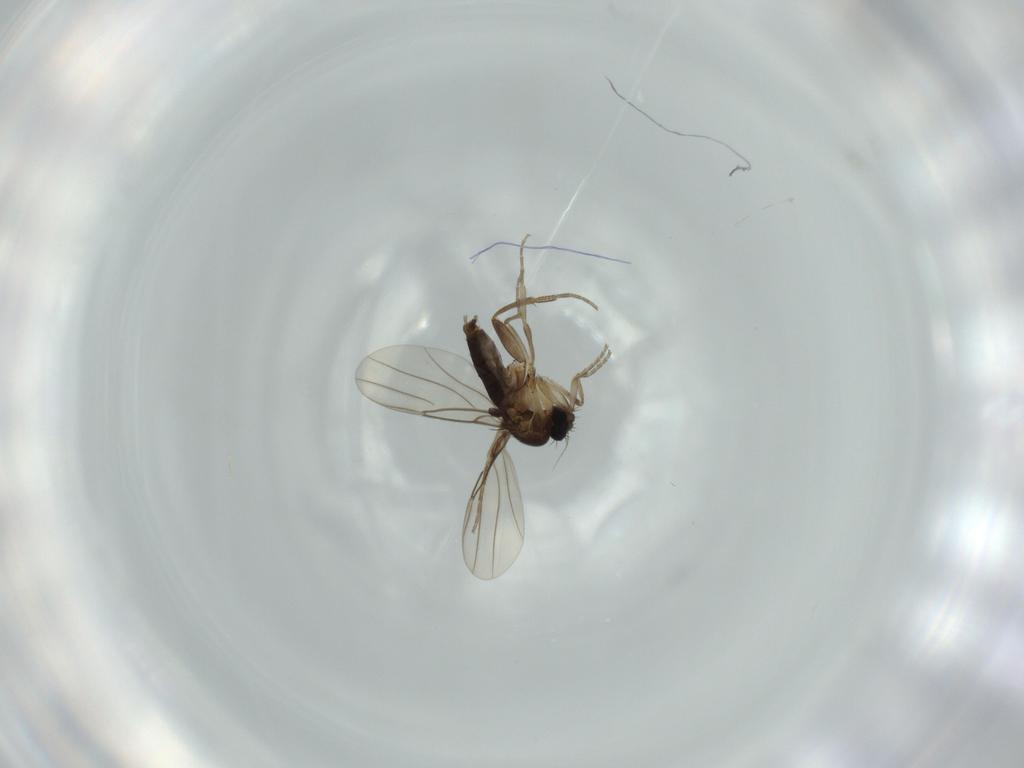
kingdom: Animalia
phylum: Arthropoda
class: Insecta
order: Diptera
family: Phoridae
